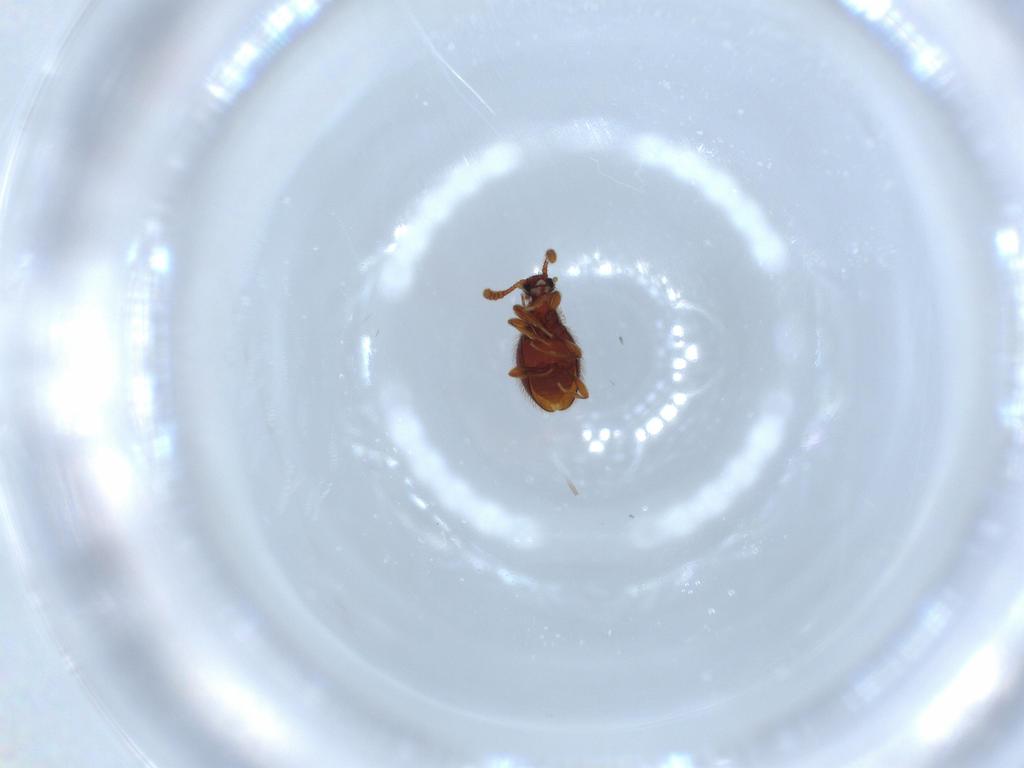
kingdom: Animalia
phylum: Arthropoda
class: Insecta
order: Coleoptera
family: Staphylinidae
